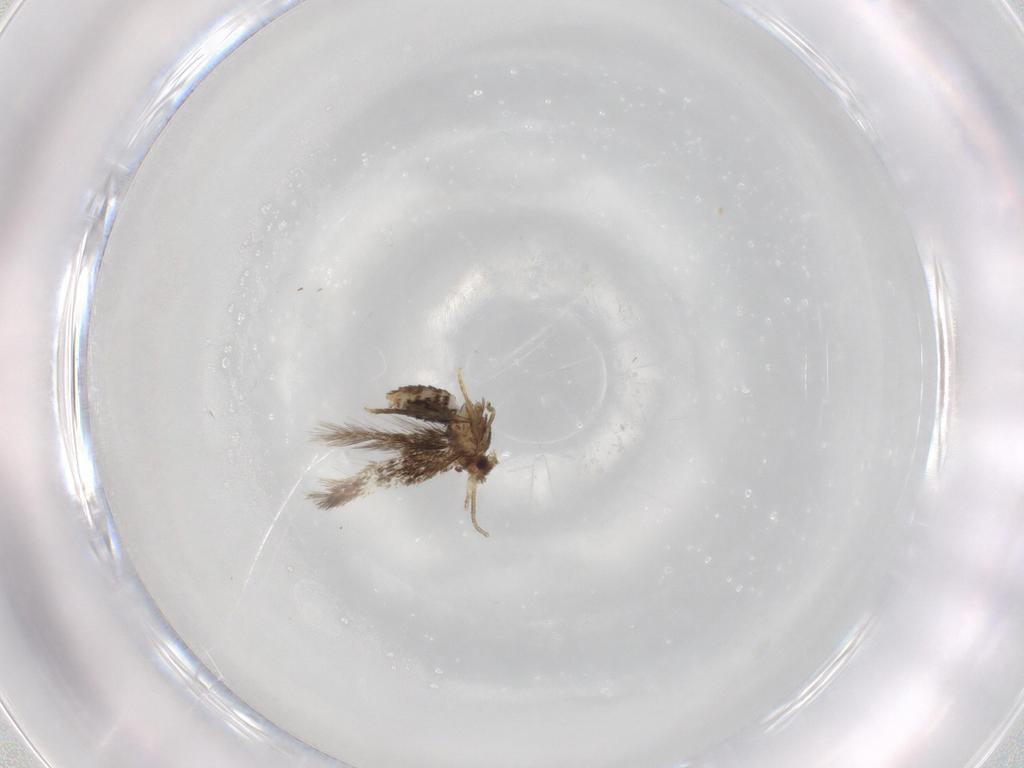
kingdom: Animalia
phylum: Arthropoda
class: Insecta
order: Lepidoptera
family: Nepticulidae
